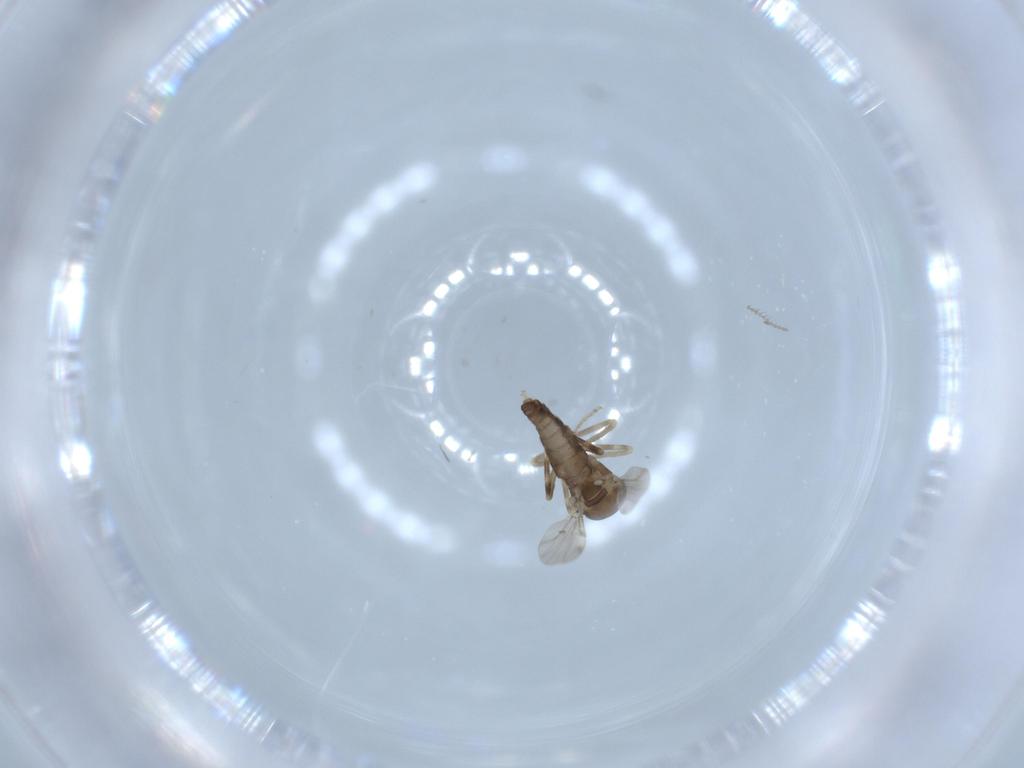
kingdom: Animalia
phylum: Arthropoda
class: Insecta
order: Diptera
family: Ceratopogonidae
